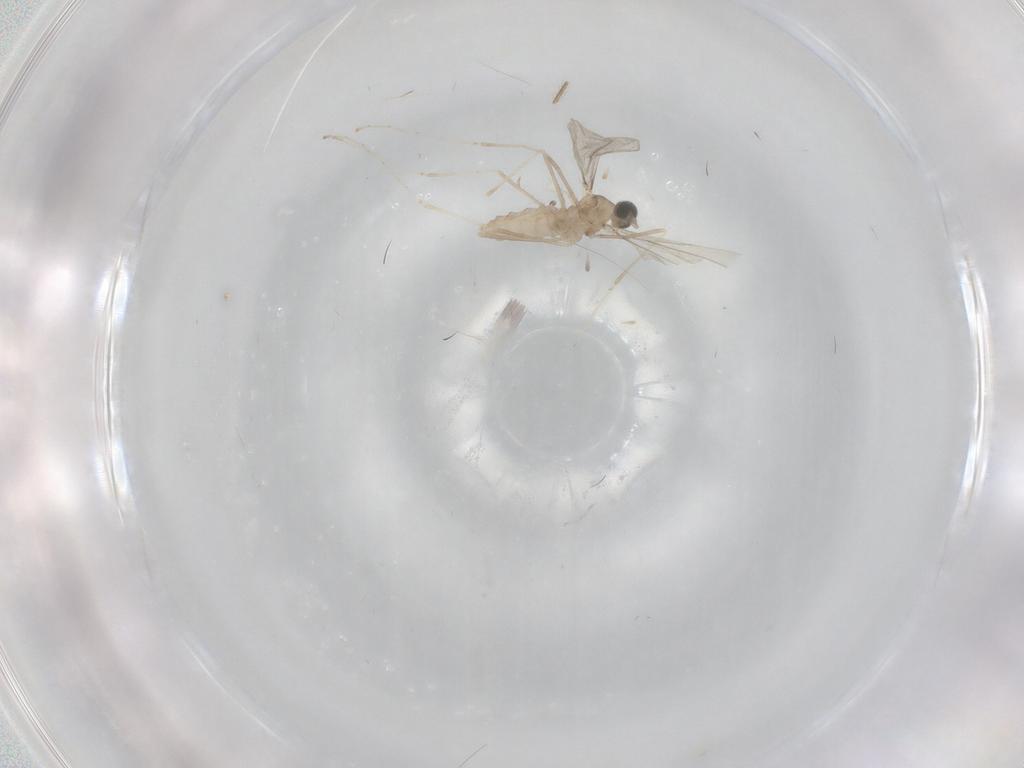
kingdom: Animalia
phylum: Arthropoda
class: Insecta
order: Diptera
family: Cecidomyiidae
